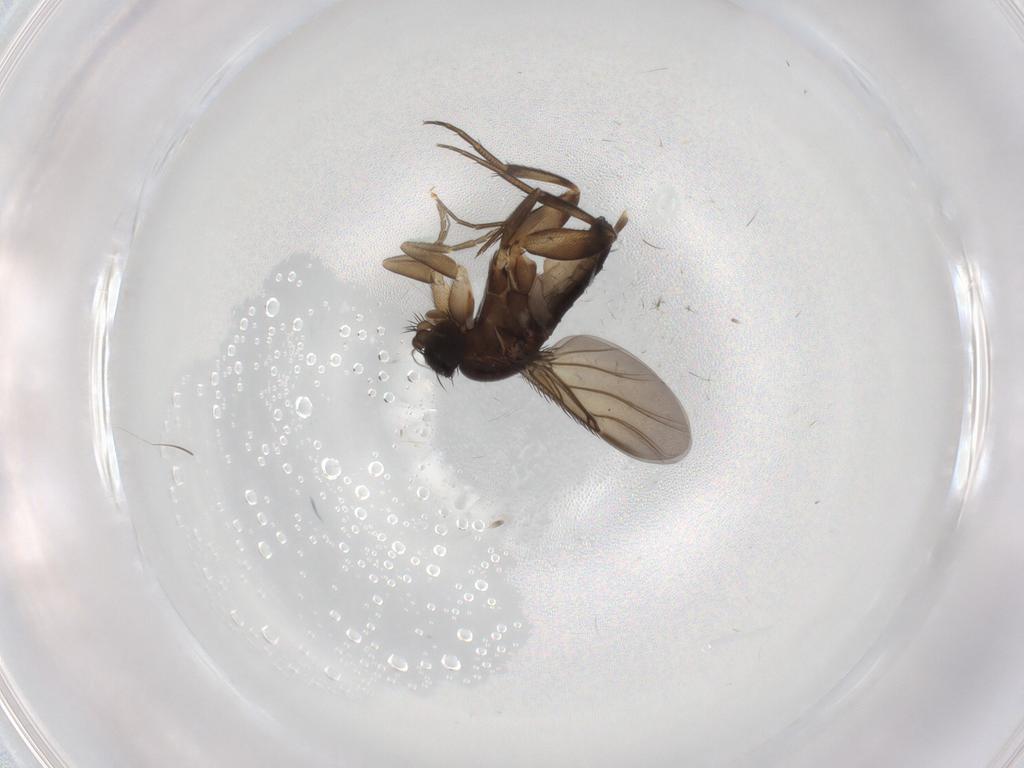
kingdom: Animalia
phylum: Arthropoda
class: Insecta
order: Diptera
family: Phoridae
